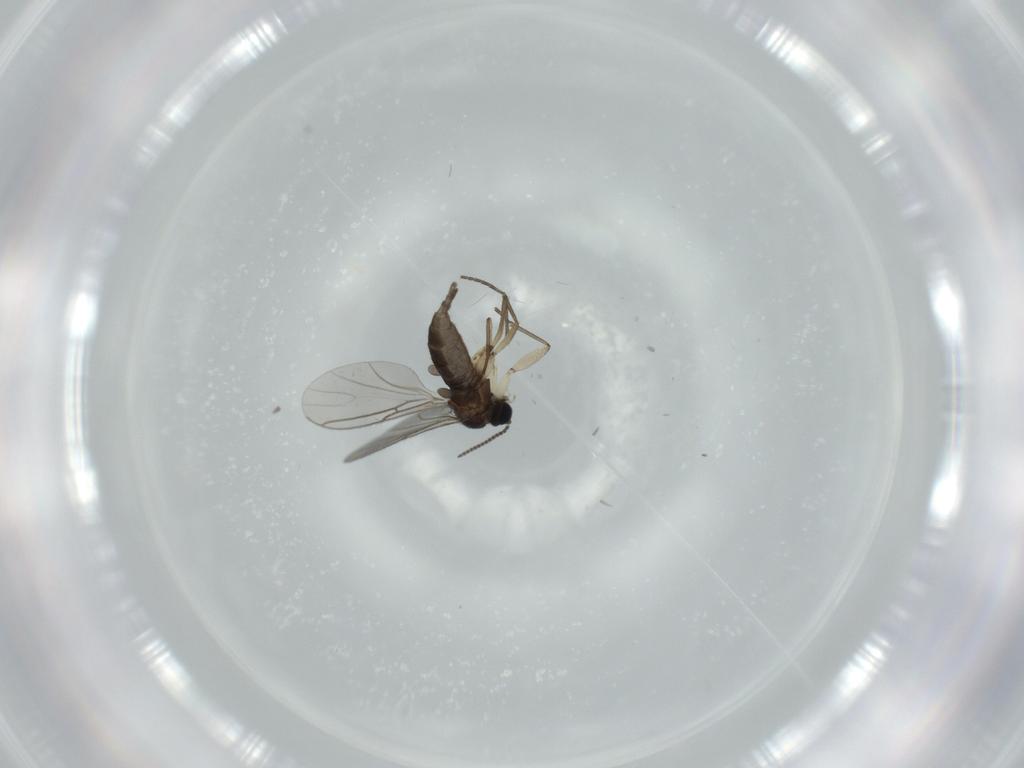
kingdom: Animalia
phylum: Arthropoda
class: Insecta
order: Diptera
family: Sciaridae
